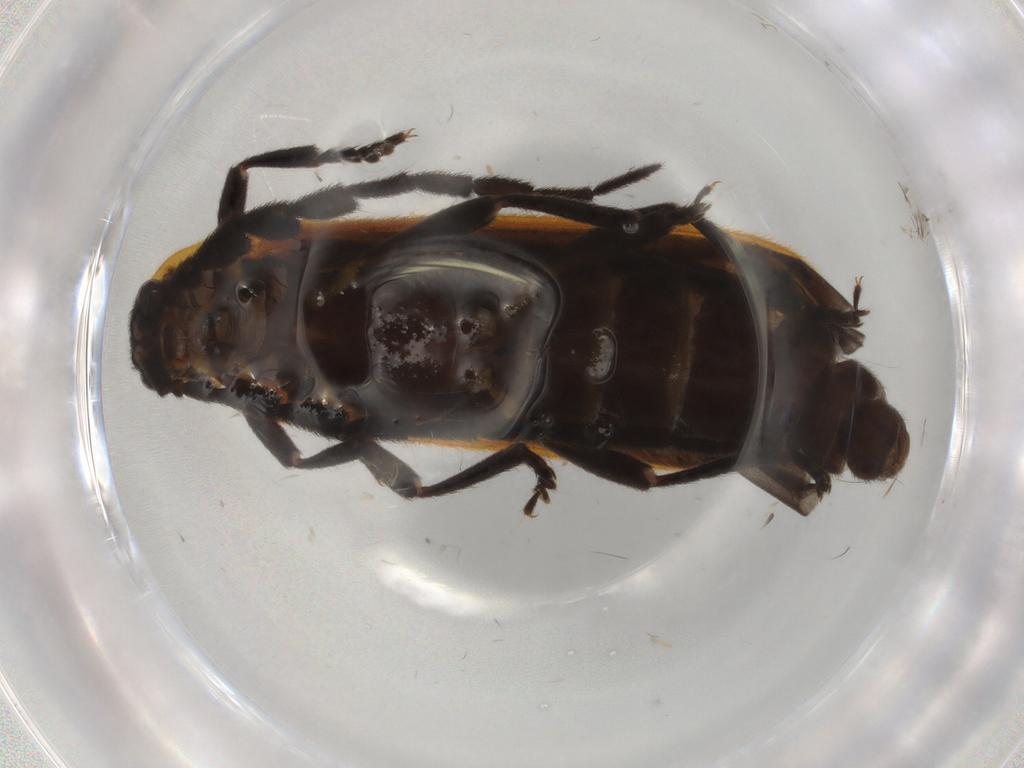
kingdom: Animalia
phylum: Arthropoda
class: Insecta
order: Coleoptera
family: Lycidae
